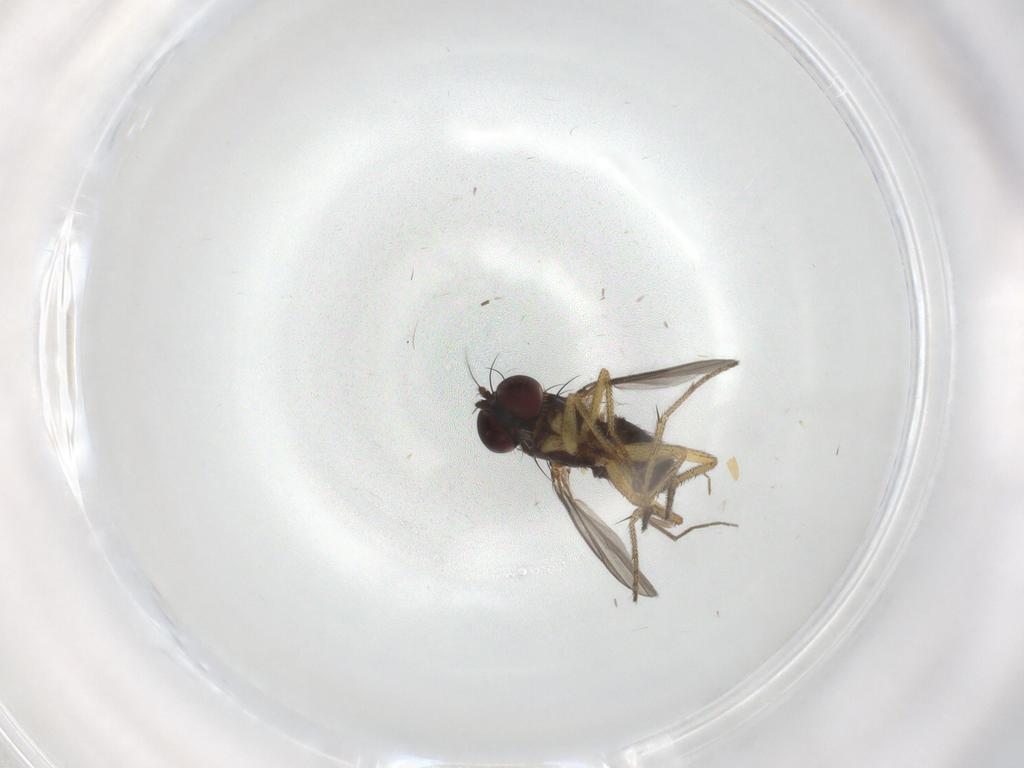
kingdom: Animalia
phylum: Arthropoda
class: Insecta
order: Diptera
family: Chironomidae
